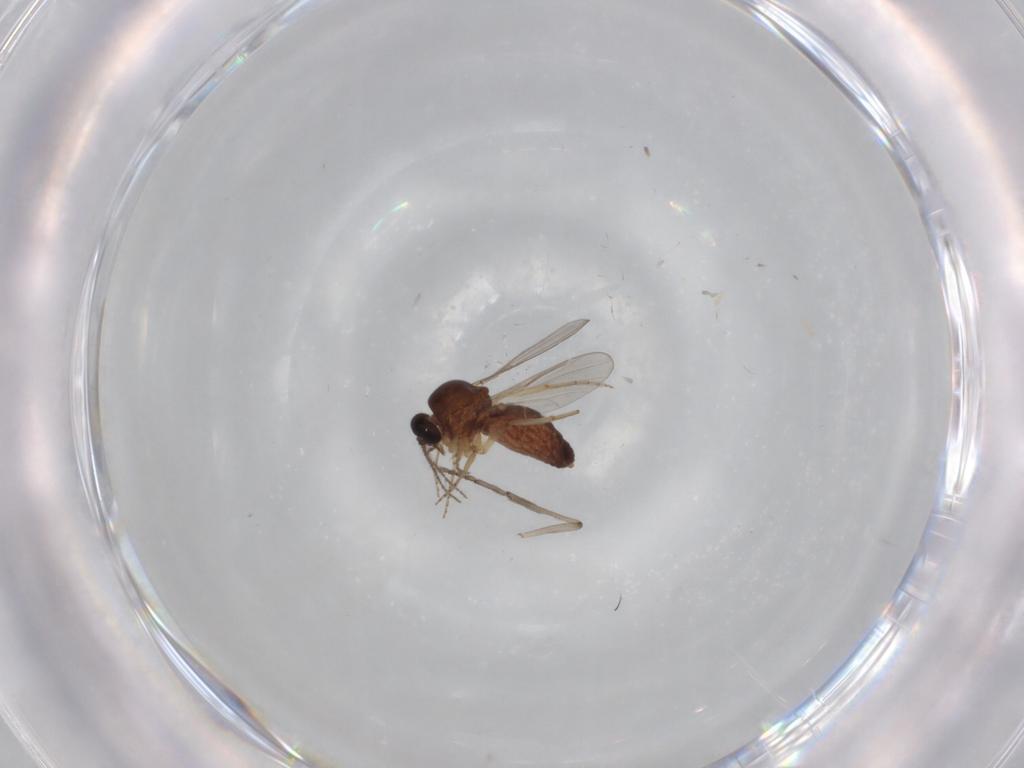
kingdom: Animalia
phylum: Arthropoda
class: Insecta
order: Diptera
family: Psychodidae
